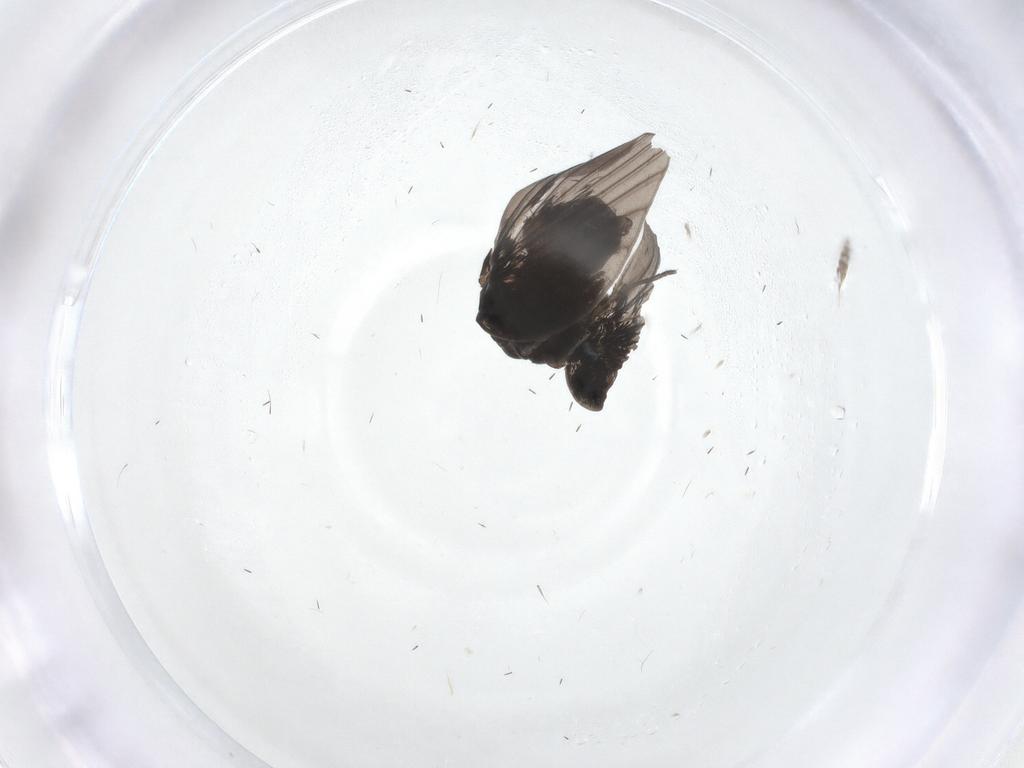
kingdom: Animalia
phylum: Arthropoda
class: Insecta
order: Diptera
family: Psychodidae
